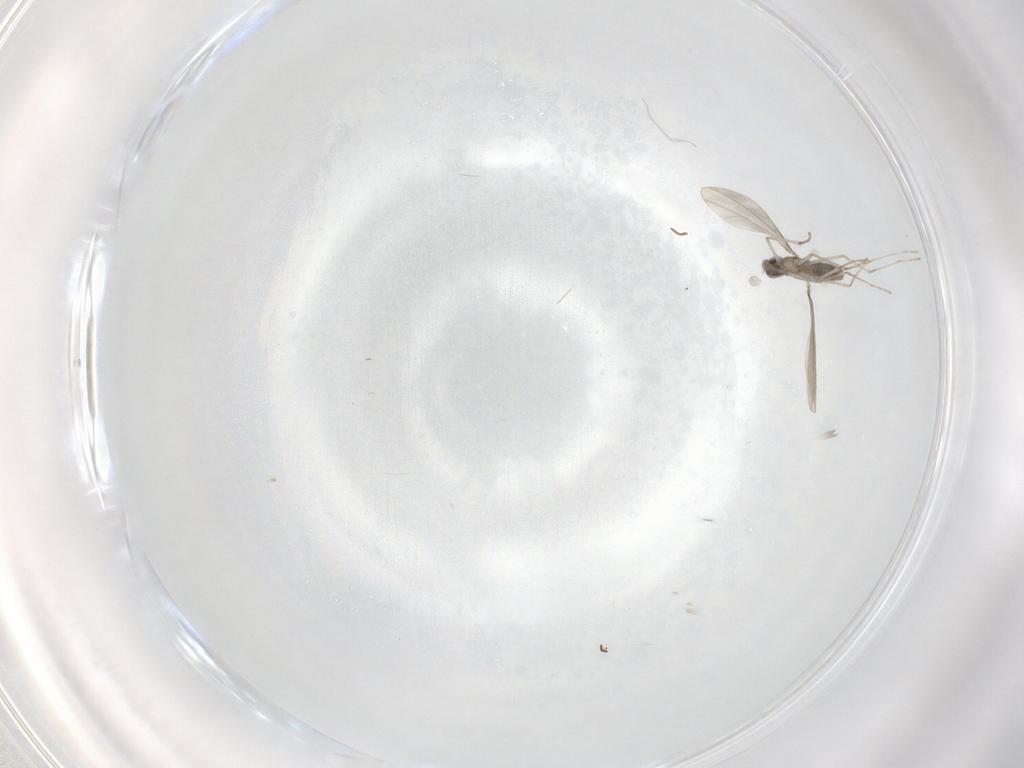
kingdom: Animalia
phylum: Arthropoda
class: Insecta
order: Diptera
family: Cecidomyiidae
